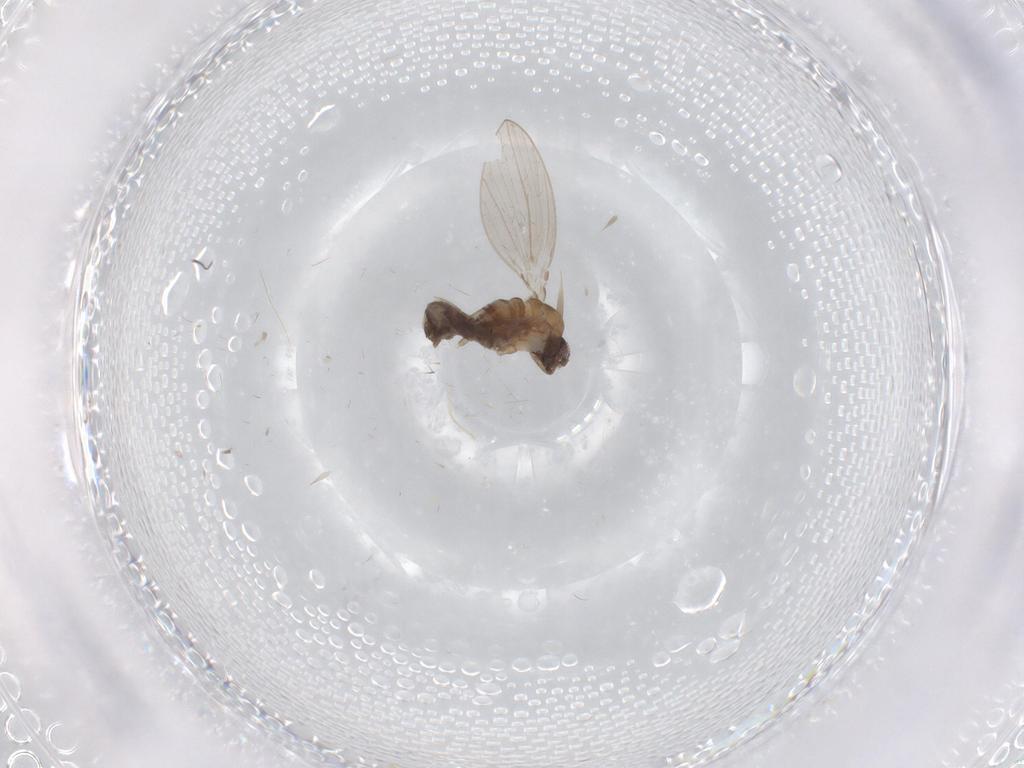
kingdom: Animalia
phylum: Arthropoda
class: Insecta
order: Diptera
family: Psychodidae
